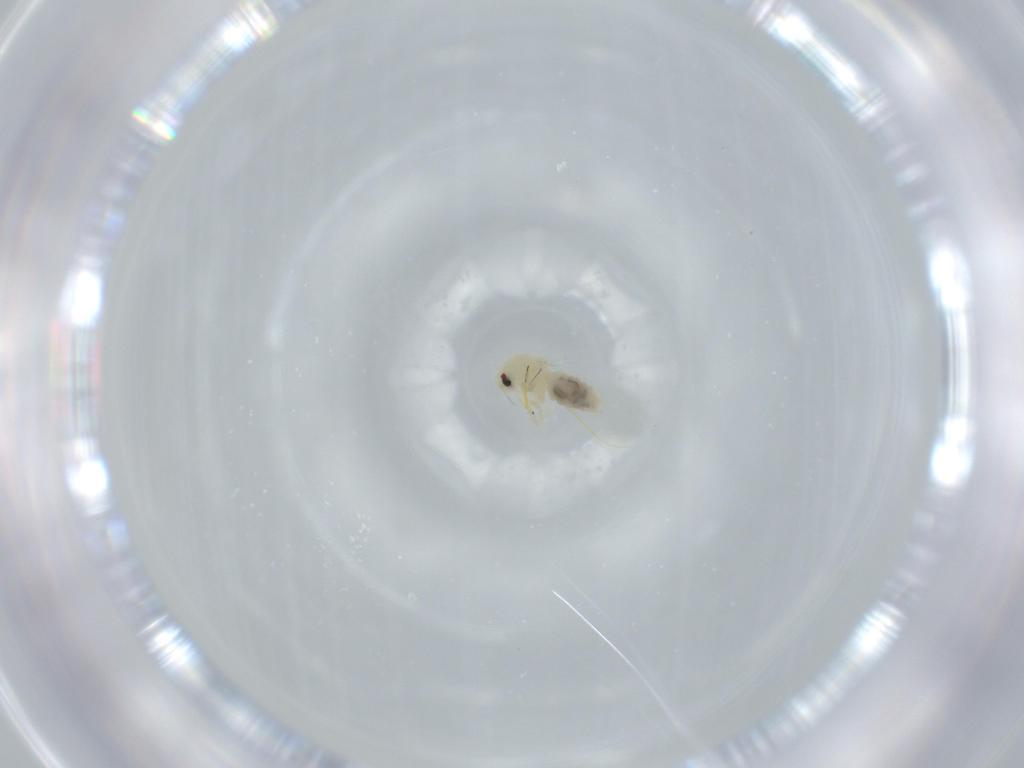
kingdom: Animalia
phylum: Arthropoda
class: Insecta
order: Hemiptera
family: Aleyrodidae
